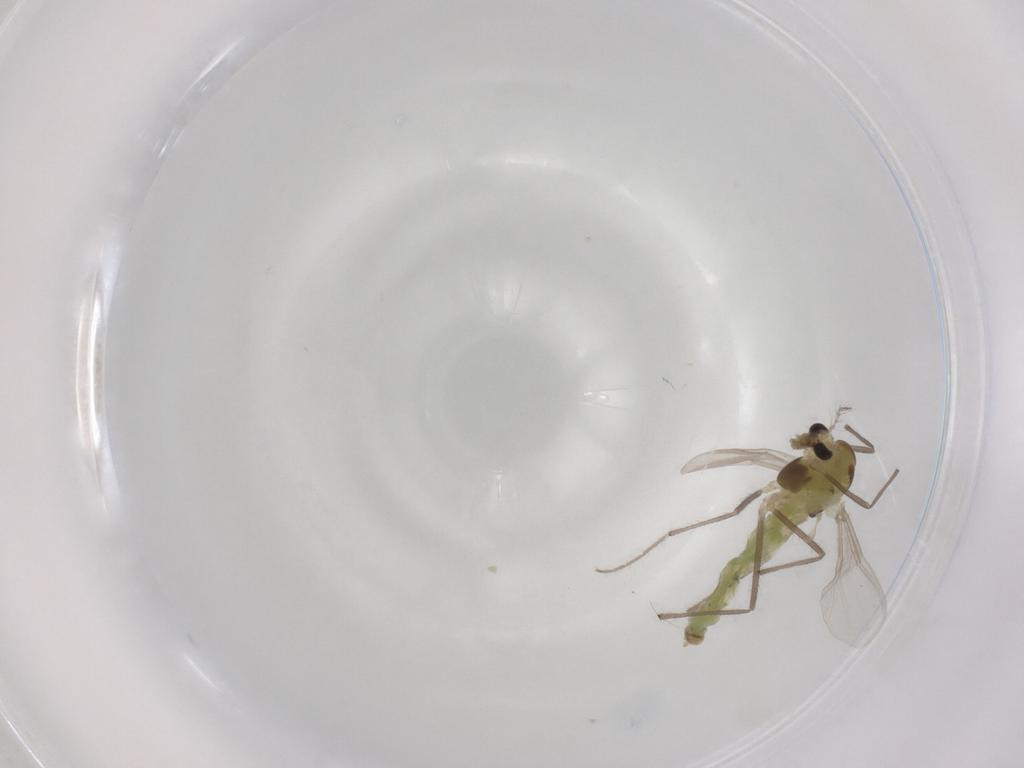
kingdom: Animalia
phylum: Arthropoda
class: Insecta
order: Diptera
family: Chironomidae
